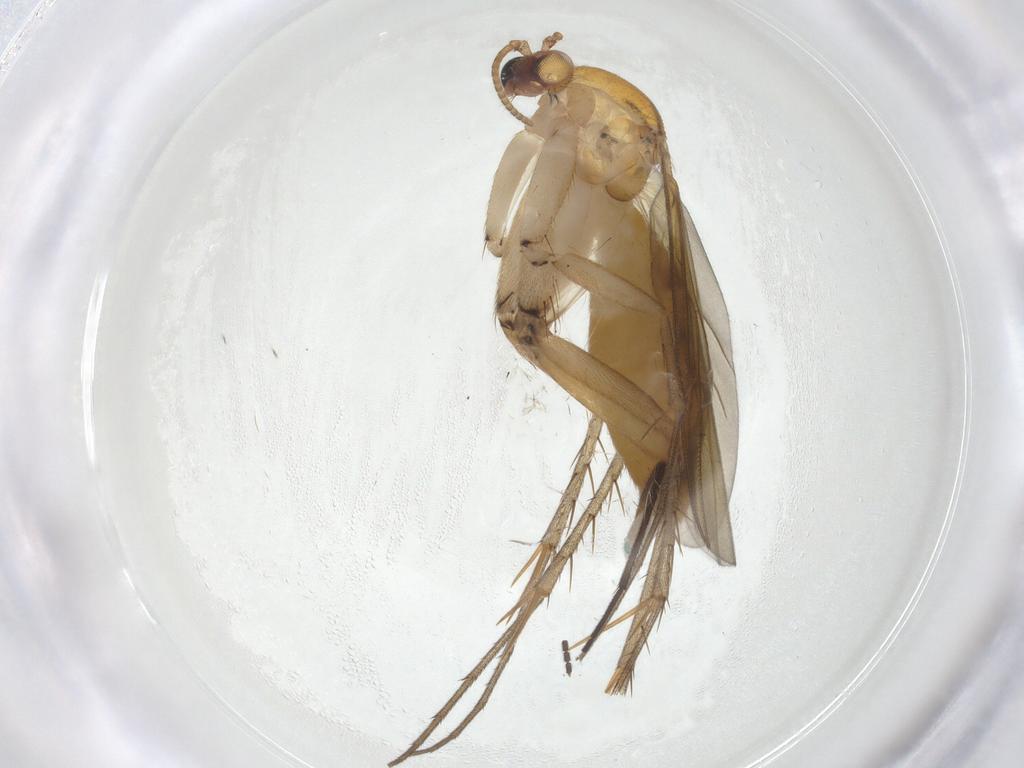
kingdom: Animalia
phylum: Arthropoda
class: Insecta
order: Diptera
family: Mycetophilidae
